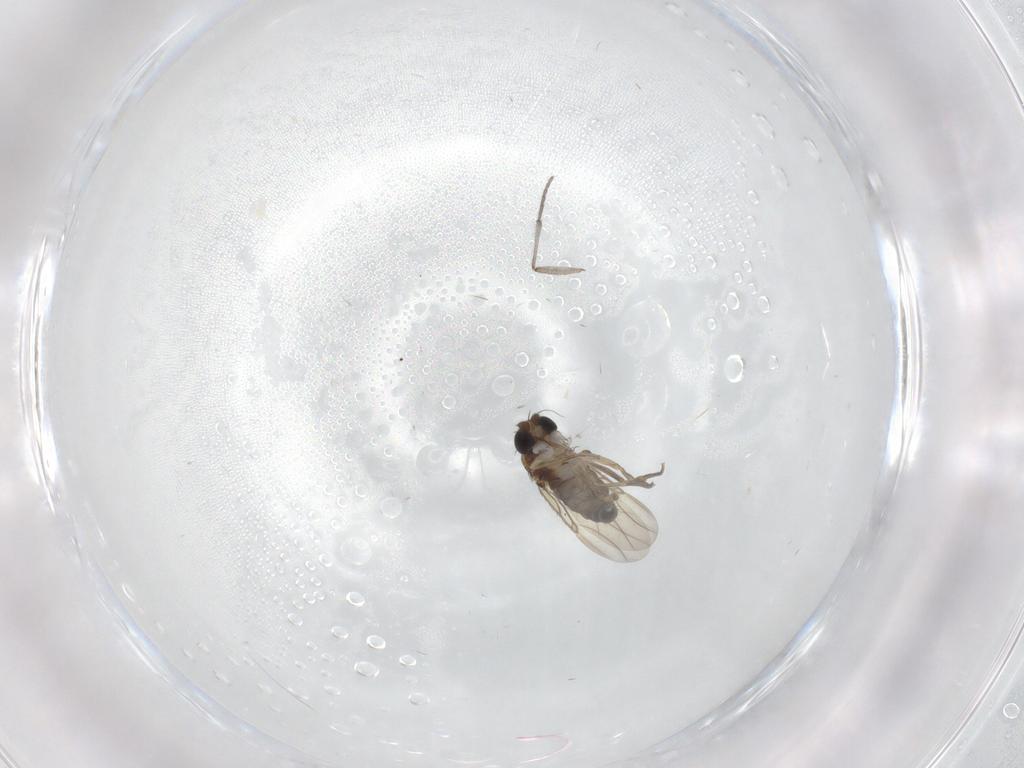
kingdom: Animalia
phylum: Arthropoda
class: Insecta
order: Diptera
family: Phoridae
